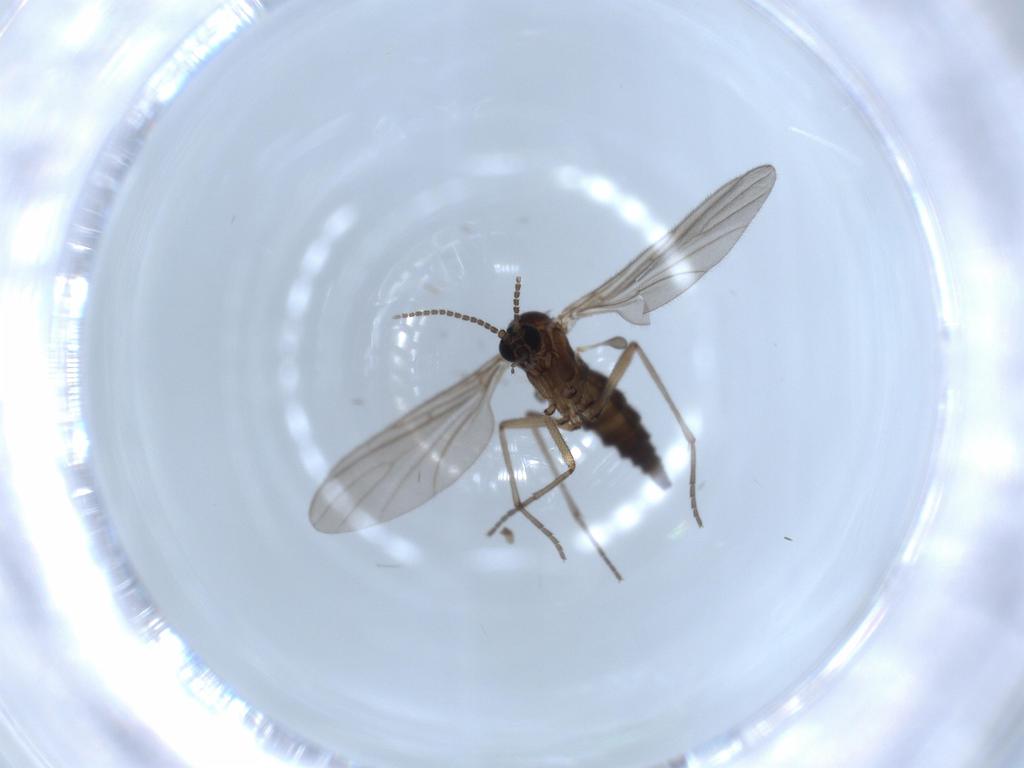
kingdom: Animalia
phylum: Arthropoda
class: Insecta
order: Diptera
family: Sciaridae
